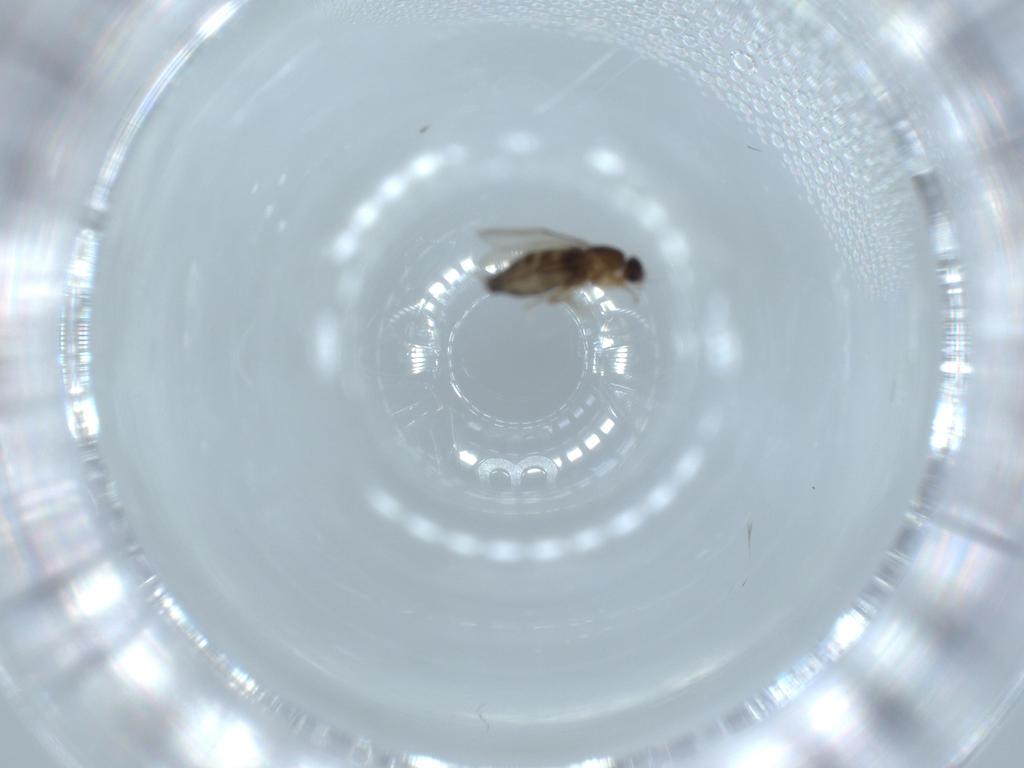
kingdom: Animalia
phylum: Arthropoda
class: Insecta
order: Diptera
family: Phoridae
